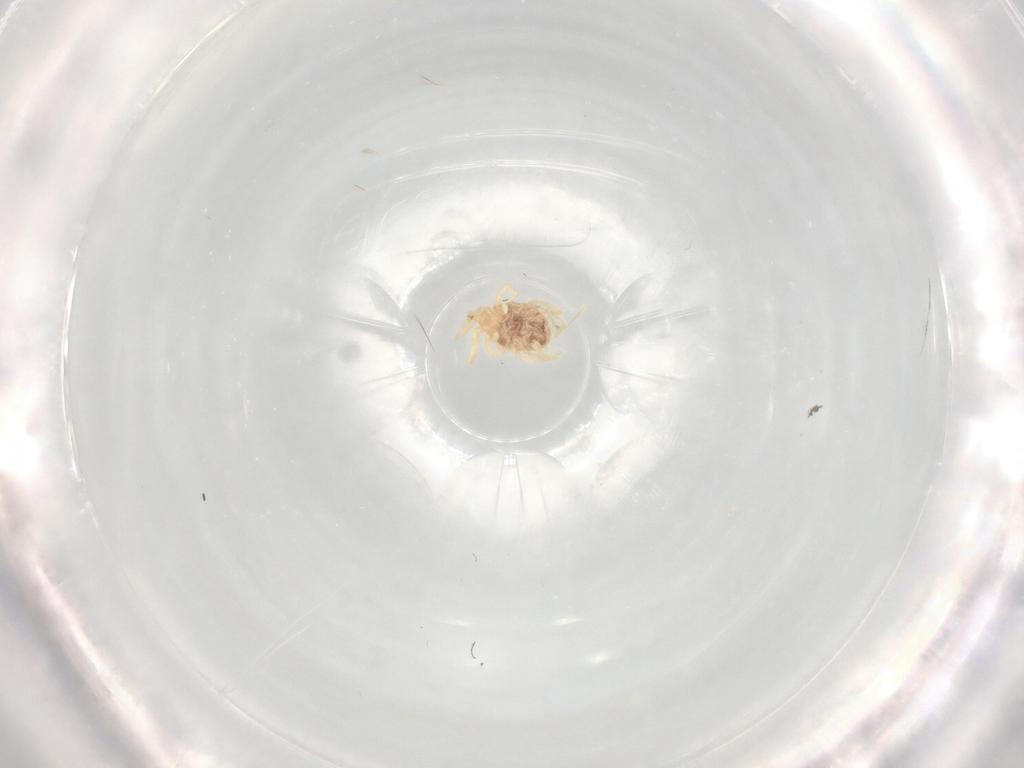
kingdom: Animalia
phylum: Arthropoda
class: Arachnida
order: Trombidiformes
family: Erythraeidae
